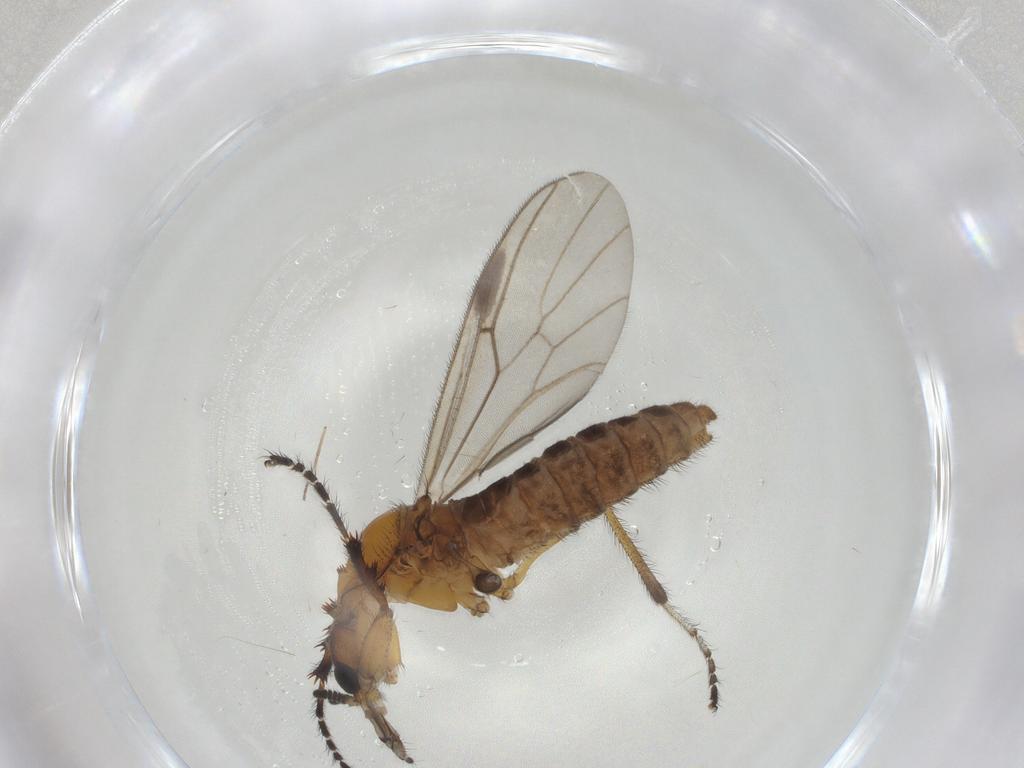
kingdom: Animalia
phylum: Arthropoda
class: Insecta
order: Diptera
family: Bibionidae
